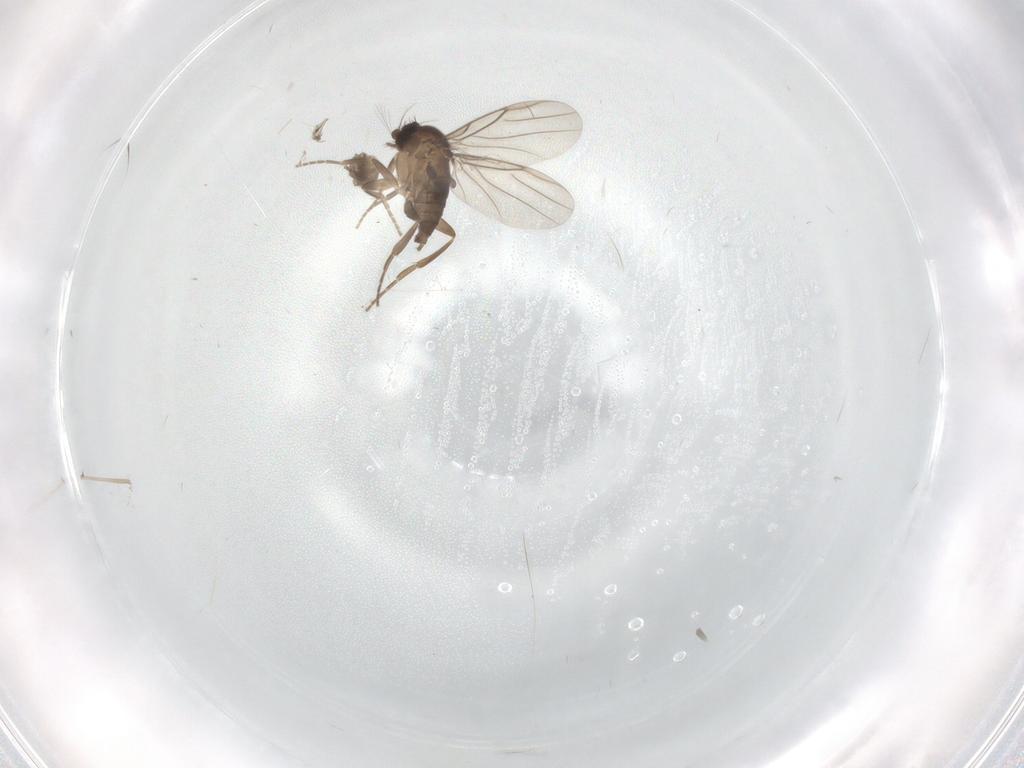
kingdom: Animalia
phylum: Arthropoda
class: Insecta
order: Diptera
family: Phoridae
